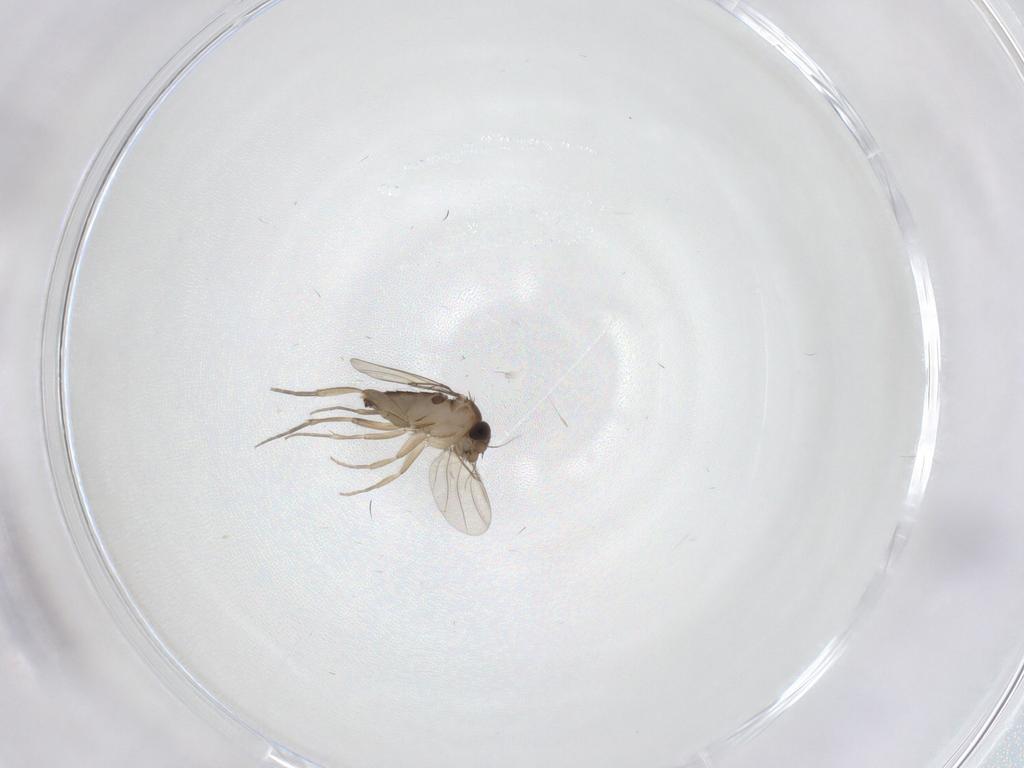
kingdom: Animalia
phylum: Arthropoda
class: Insecta
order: Diptera
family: Phoridae
